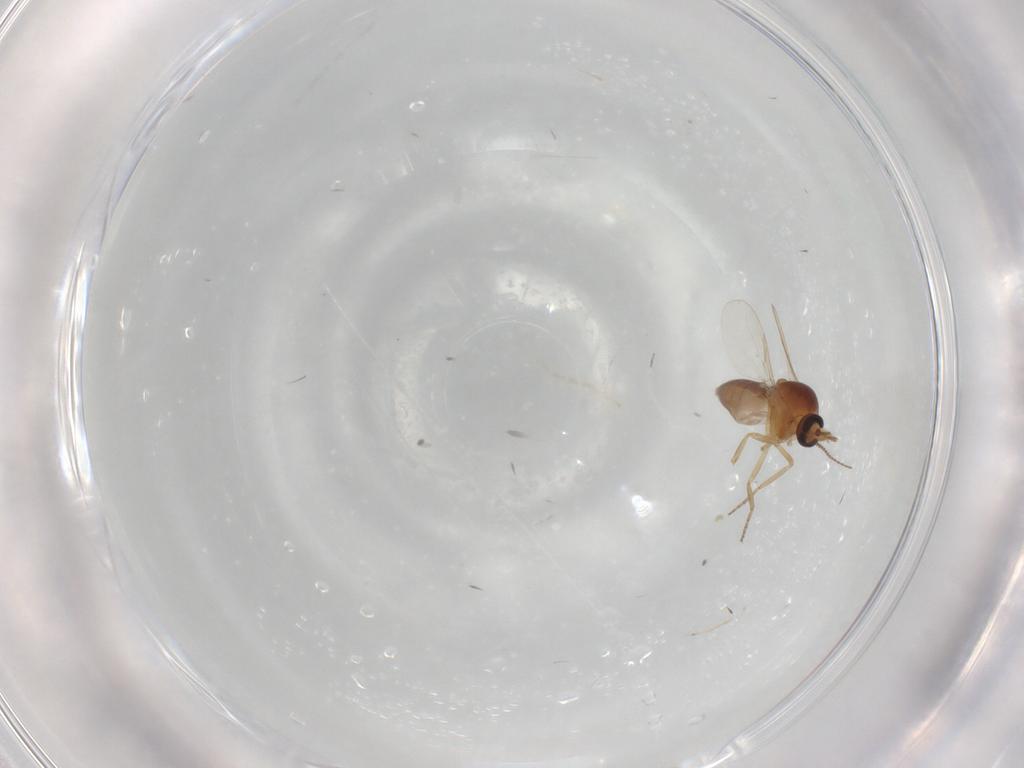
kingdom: Animalia
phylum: Arthropoda
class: Insecta
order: Diptera
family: Ceratopogonidae
